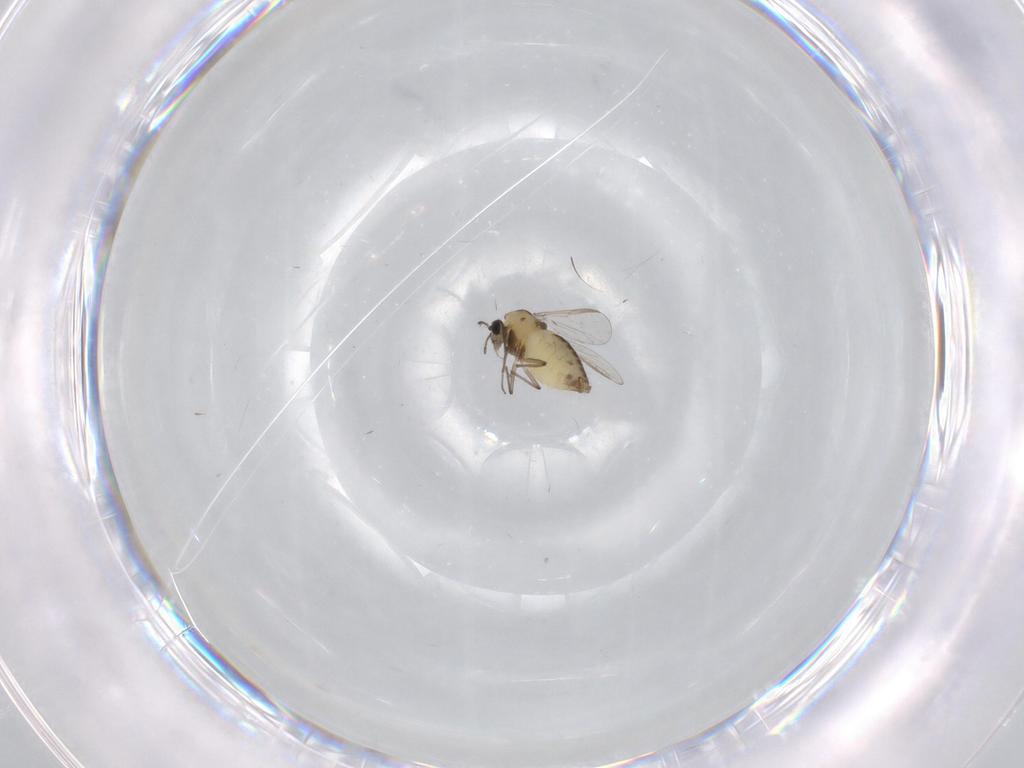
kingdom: Animalia
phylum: Arthropoda
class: Insecta
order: Diptera
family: Chironomidae
